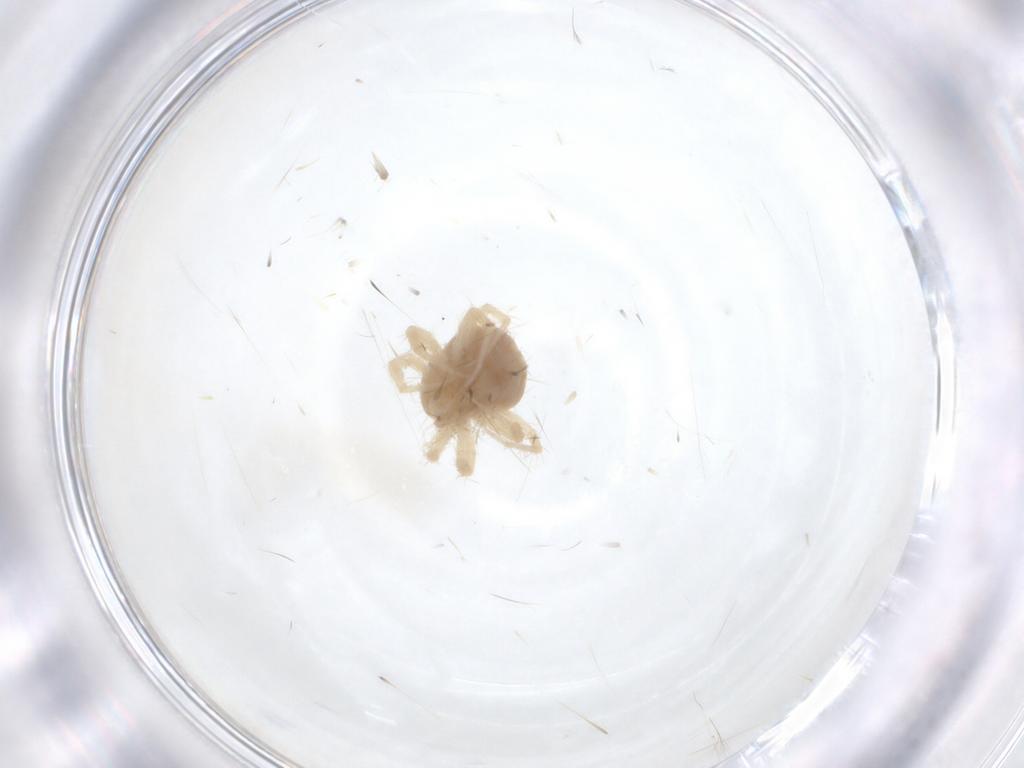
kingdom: Animalia
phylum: Arthropoda
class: Arachnida
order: Trombidiformes
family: Anystidae
